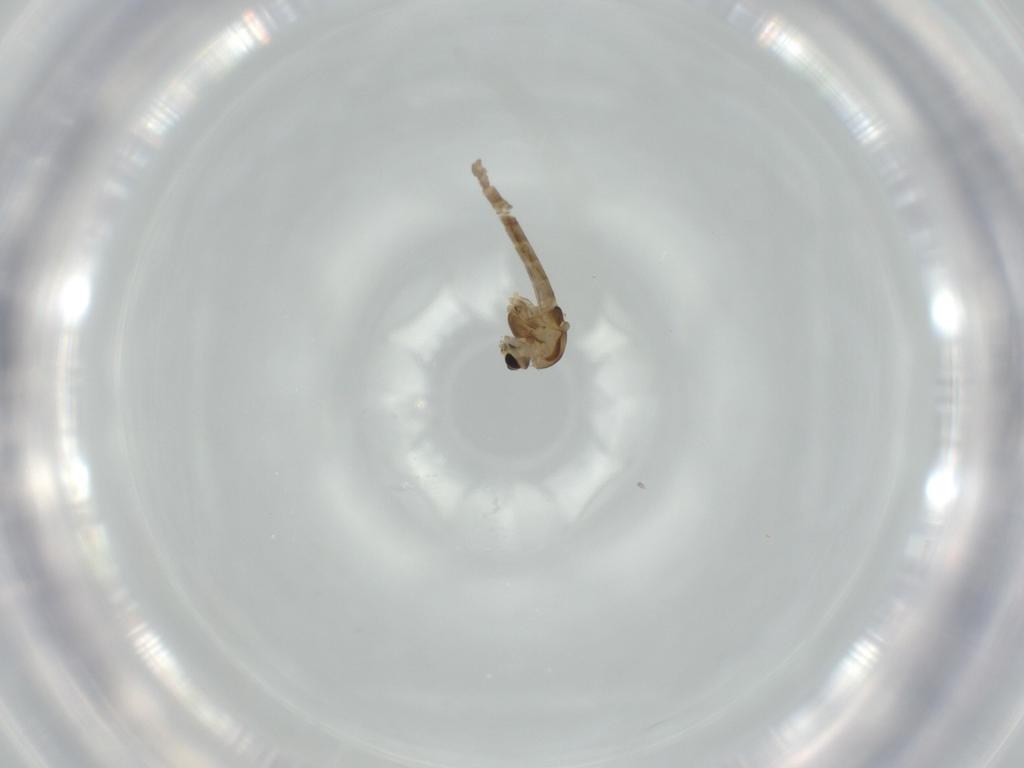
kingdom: Animalia
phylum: Arthropoda
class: Insecta
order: Diptera
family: Chironomidae
